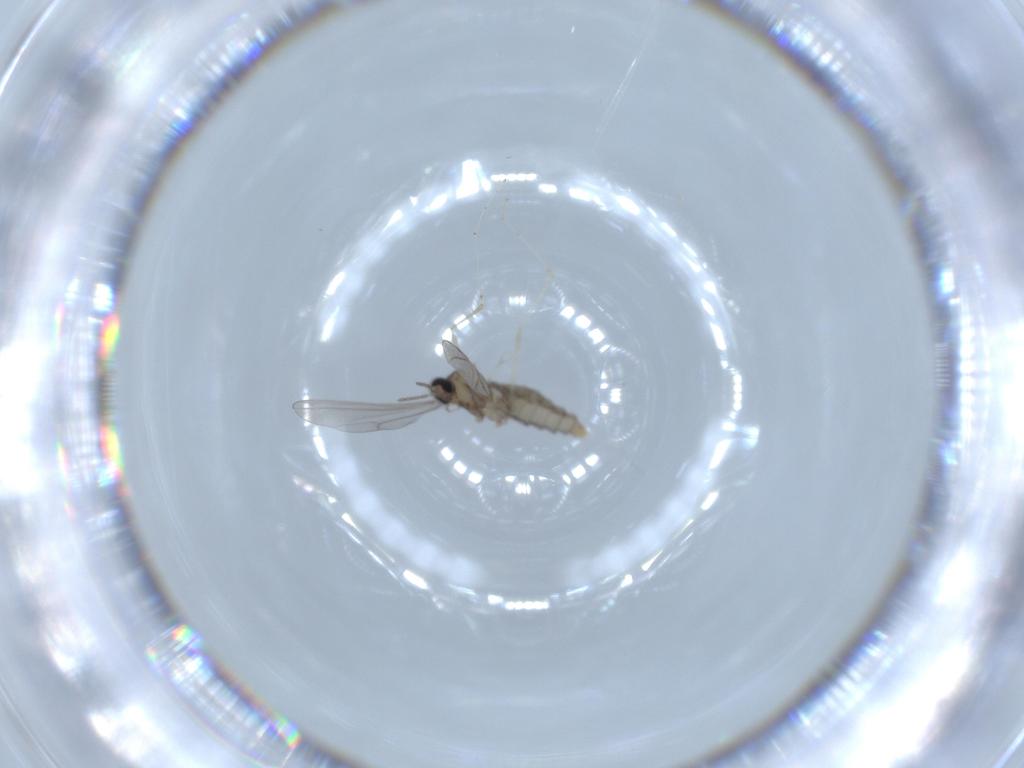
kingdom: Animalia
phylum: Arthropoda
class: Insecta
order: Diptera
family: Cecidomyiidae
